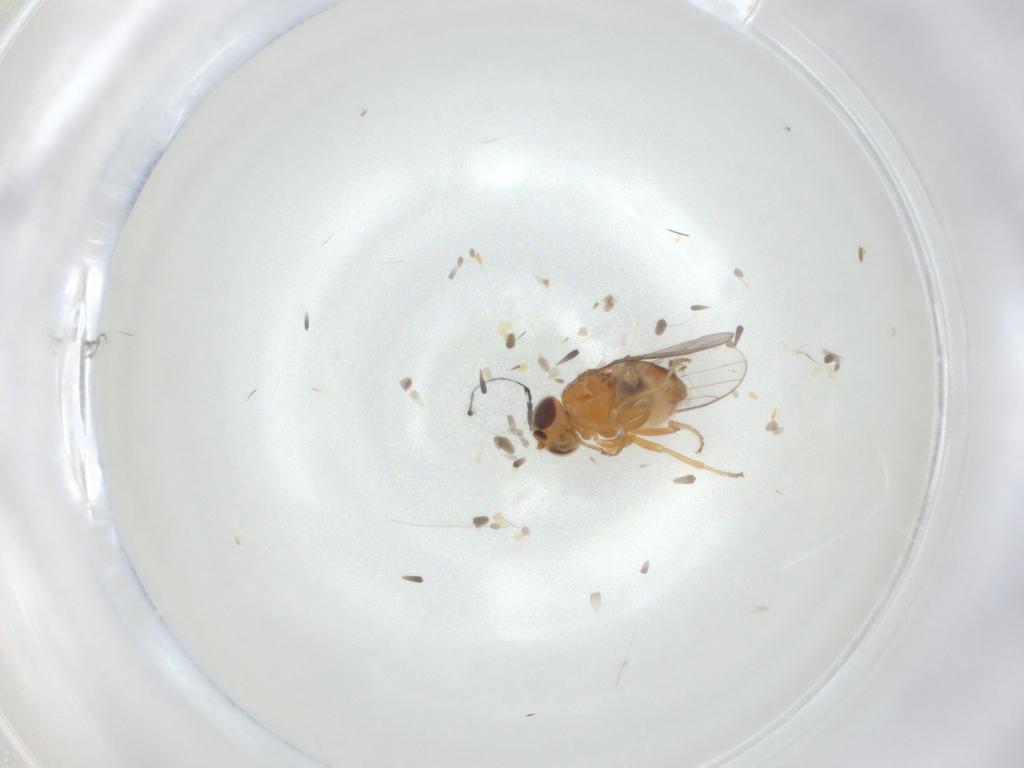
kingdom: Animalia
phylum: Arthropoda
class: Insecta
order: Diptera
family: Chloropidae
